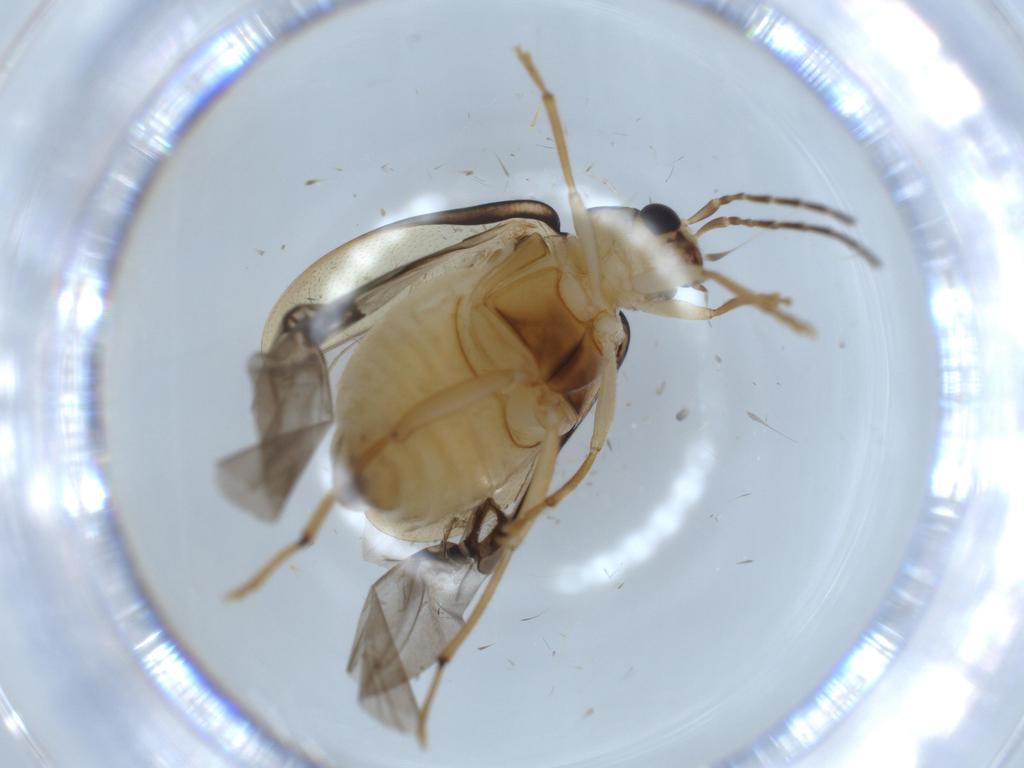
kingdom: Animalia
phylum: Arthropoda
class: Insecta
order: Coleoptera
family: Chrysomelidae
